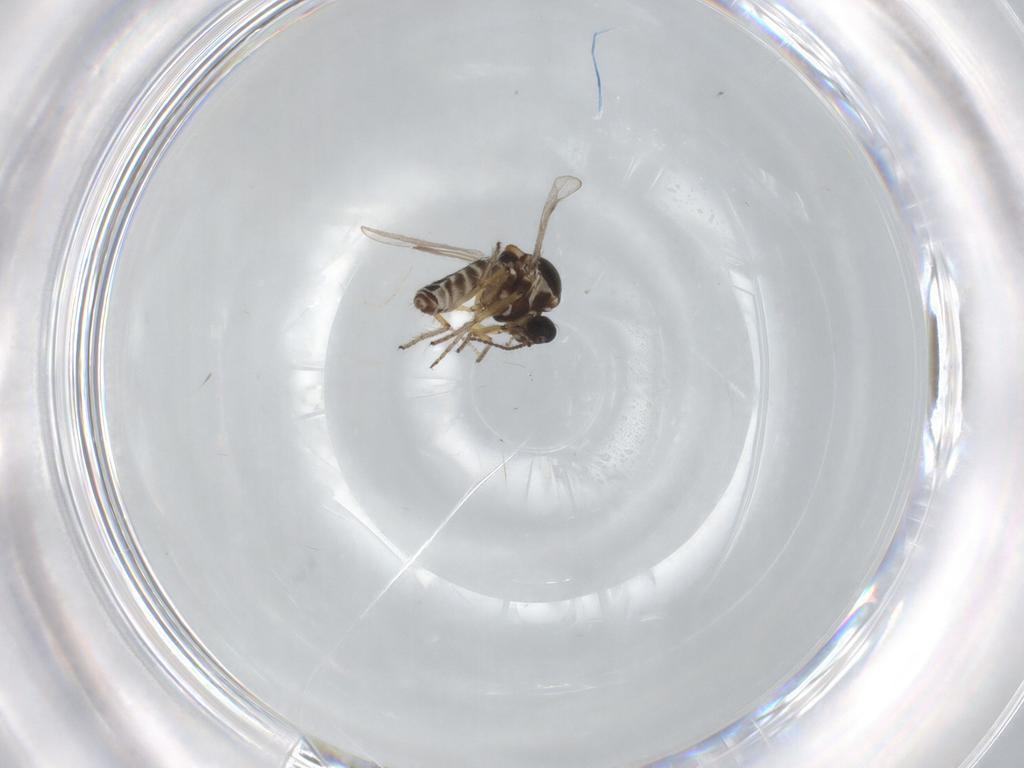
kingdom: Animalia
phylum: Arthropoda
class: Insecta
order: Diptera
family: Ceratopogonidae
